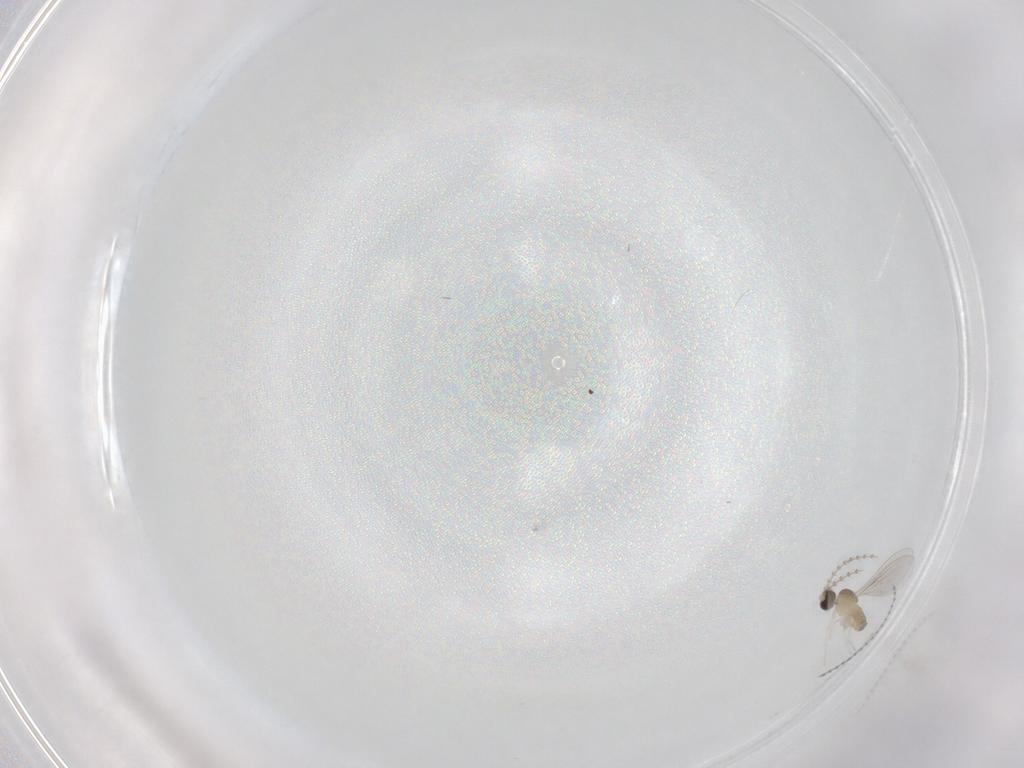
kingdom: Animalia
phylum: Arthropoda
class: Insecta
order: Diptera
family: Cecidomyiidae
